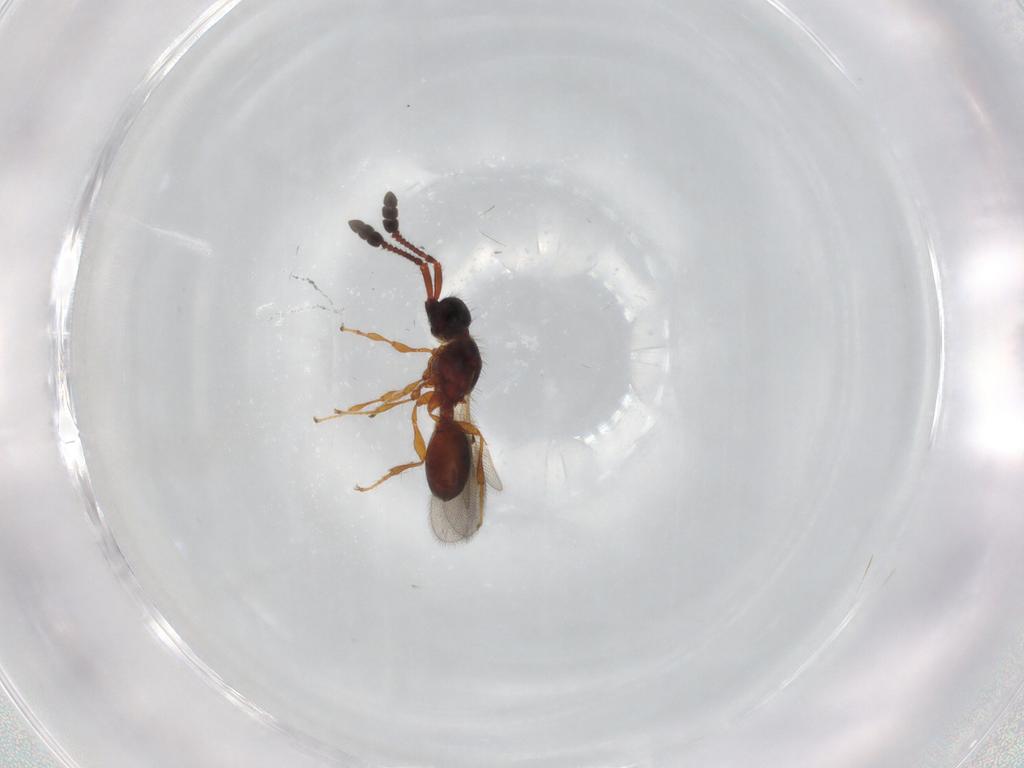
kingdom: Animalia
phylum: Arthropoda
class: Insecta
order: Hymenoptera
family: Diapriidae
